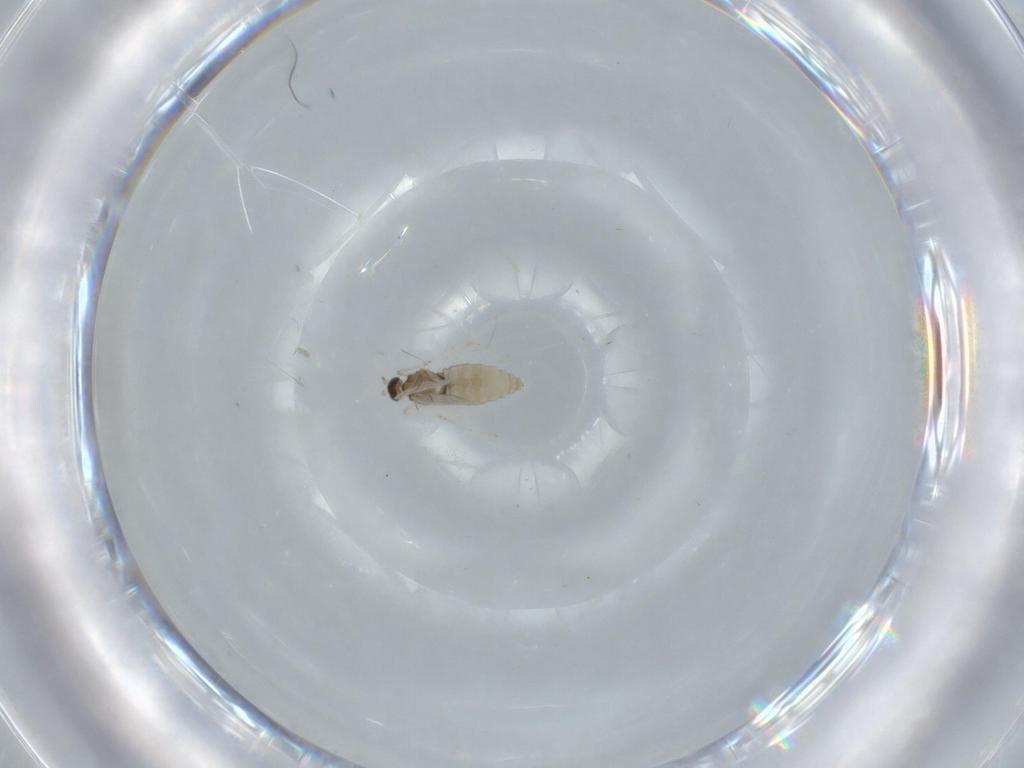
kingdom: Animalia
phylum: Arthropoda
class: Insecta
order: Diptera
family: Cecidomyiidae
